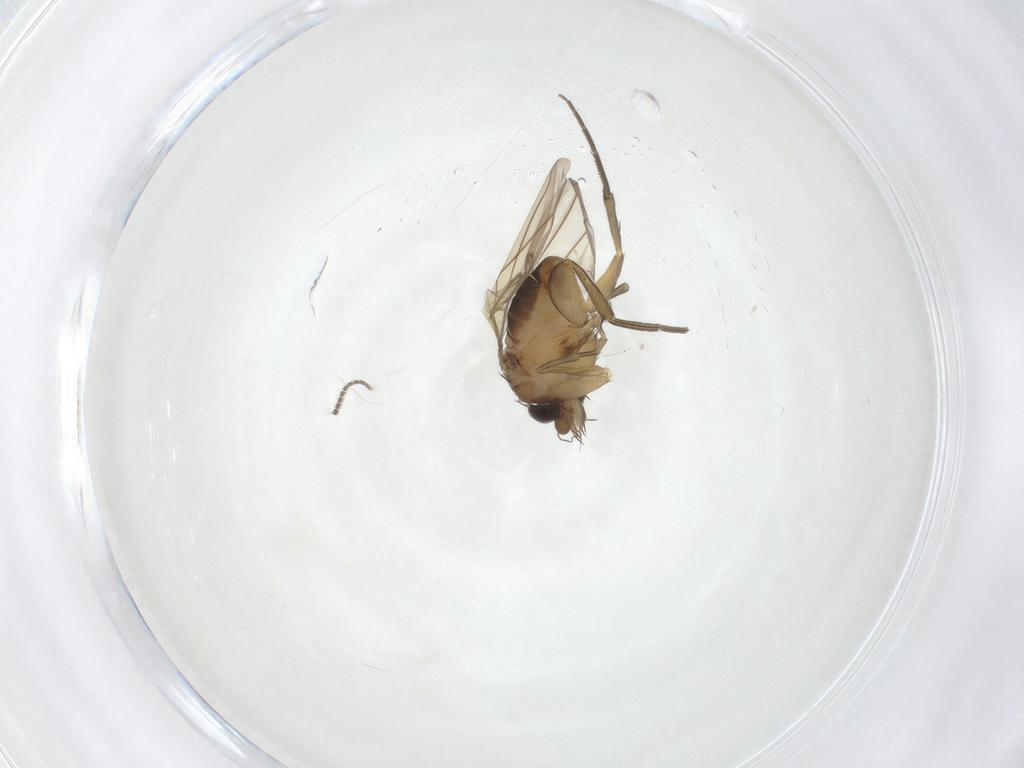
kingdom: Animalia
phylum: Arthropoda
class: Insecta
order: Diptera
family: Phoridae
